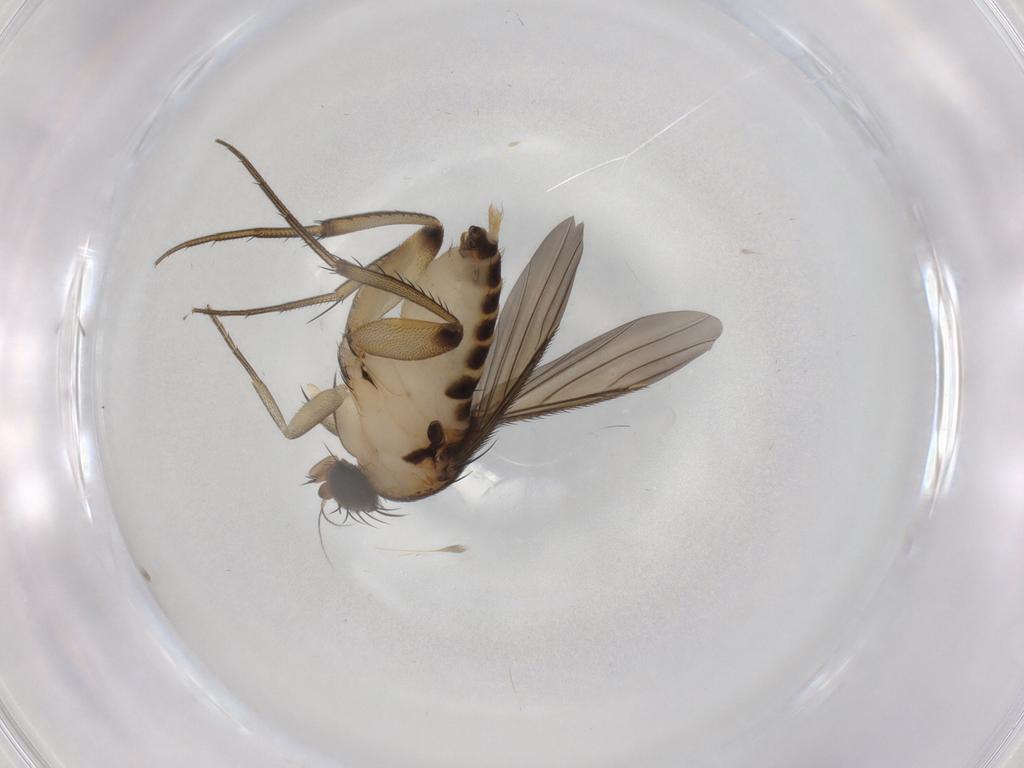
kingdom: Animalia
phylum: Arthropoda
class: Insecta
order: Diptera
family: Phoridae
